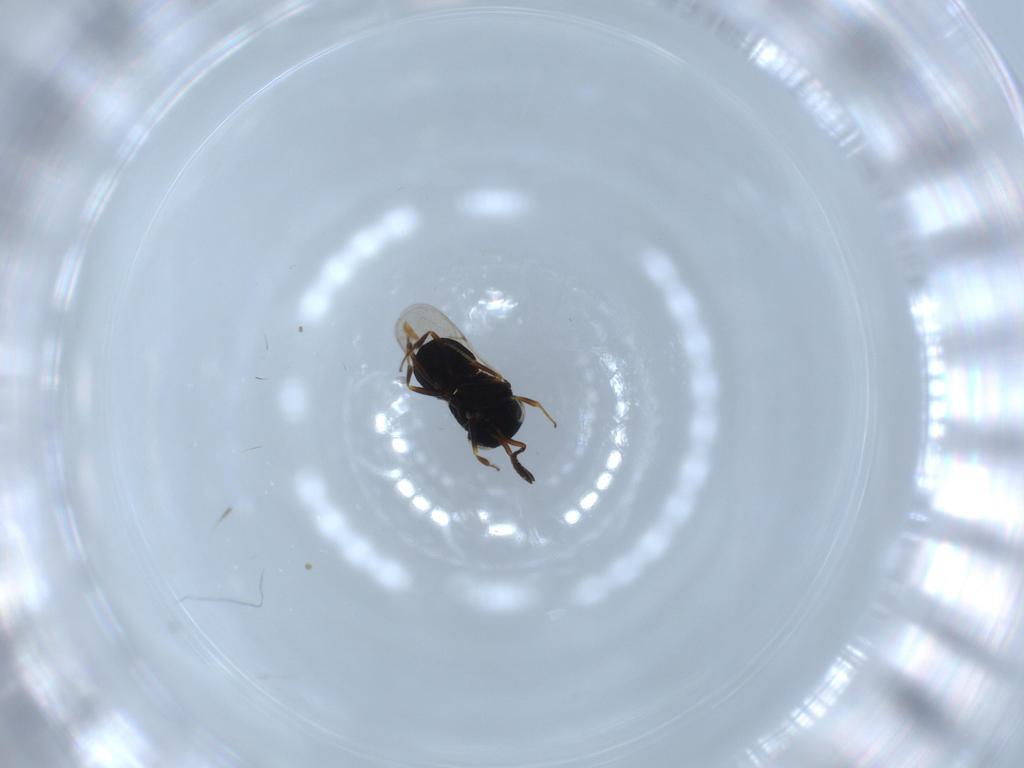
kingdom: Animalia
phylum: Arthropoda
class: Insecta
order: Hymenoptera
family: Scelionidae
